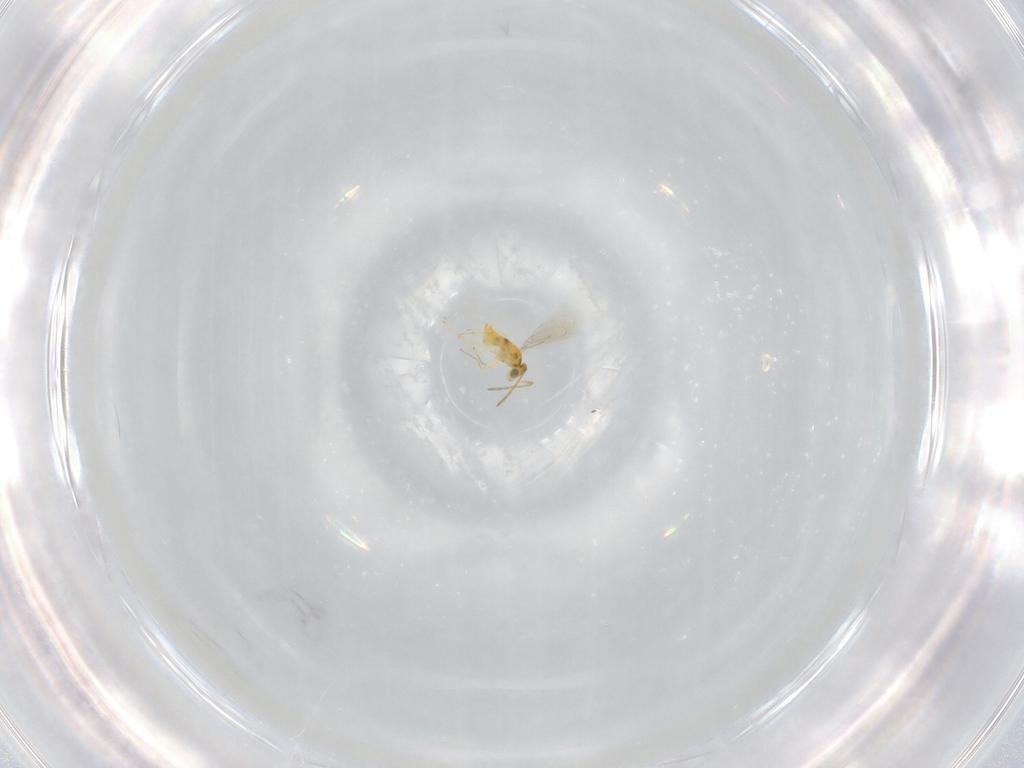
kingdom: Animalia
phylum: Arthropoda
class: Insecta
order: Hymenoptera
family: Aphelinidae
